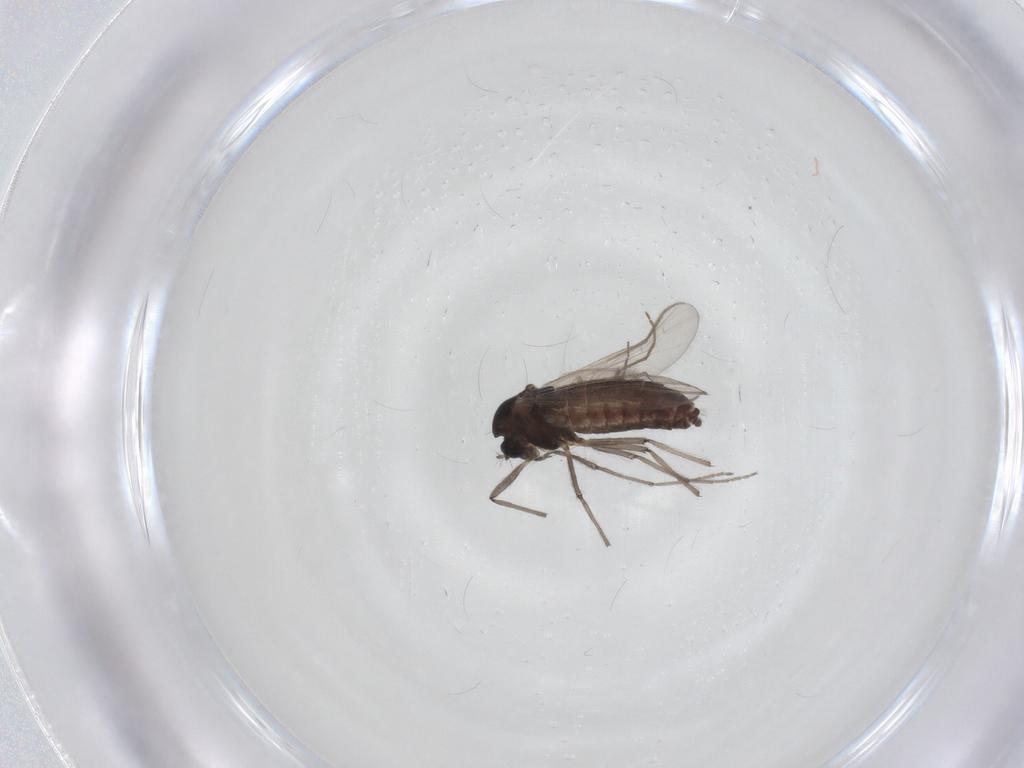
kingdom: Animalia
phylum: Arthropoda
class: Insecta
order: Diptera
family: Chironomidae
